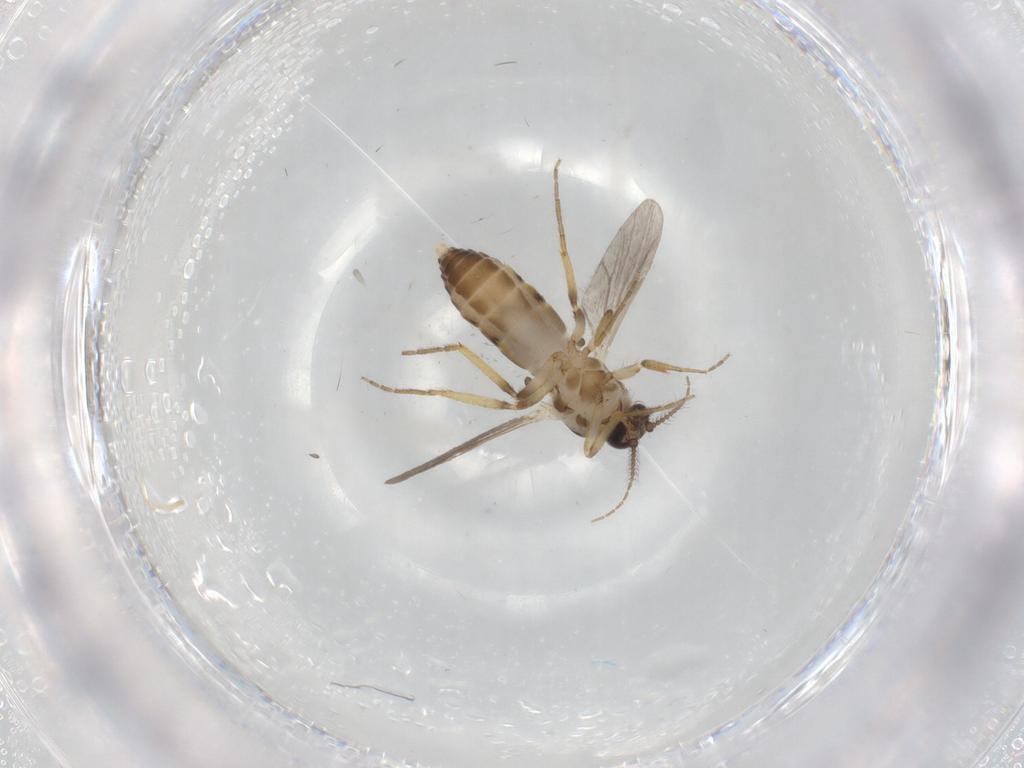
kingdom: Animalia
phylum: Arthropoda
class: Insecta
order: Diptera
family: Ceratopogonidae
